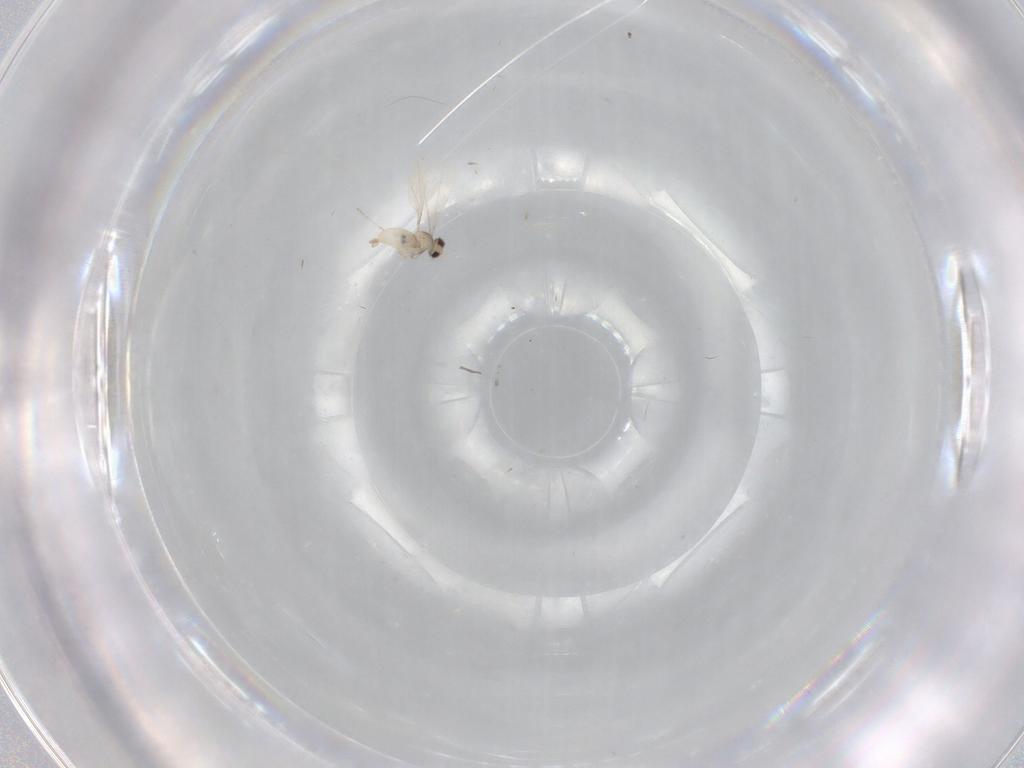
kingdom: Animalia
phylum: Arthropoda
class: Insecta
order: Diptera
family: Cecidomyiidae
